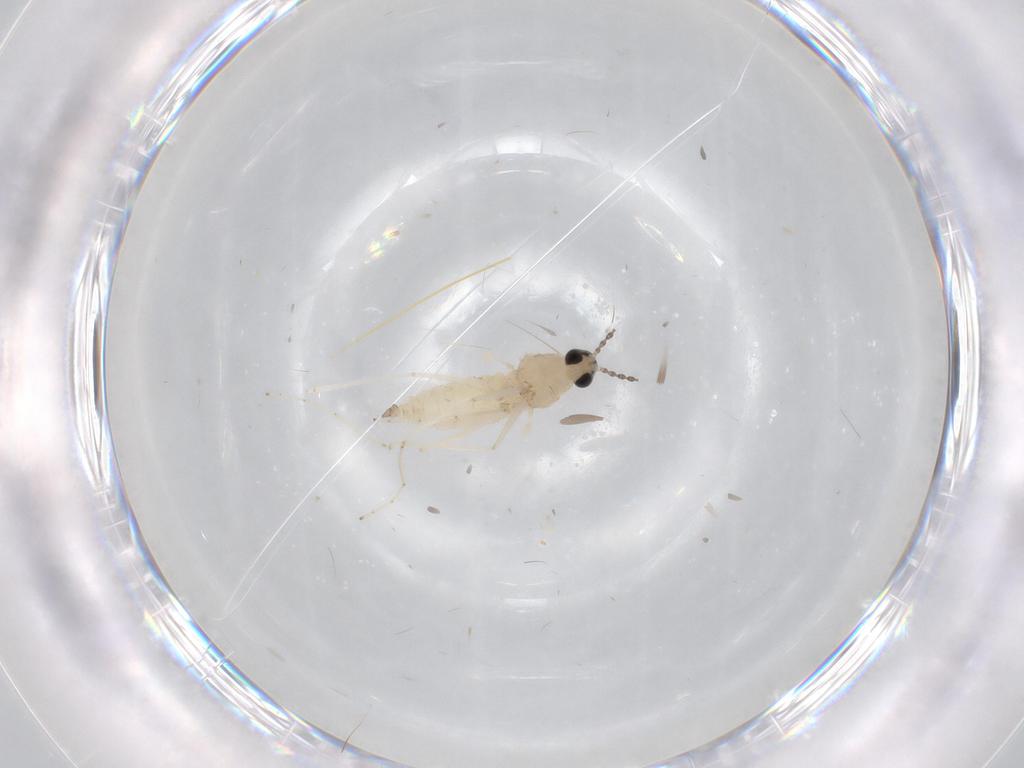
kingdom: Animalia
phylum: Arthropoda
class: Insecta
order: Diptera
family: Cecidomyiidae
